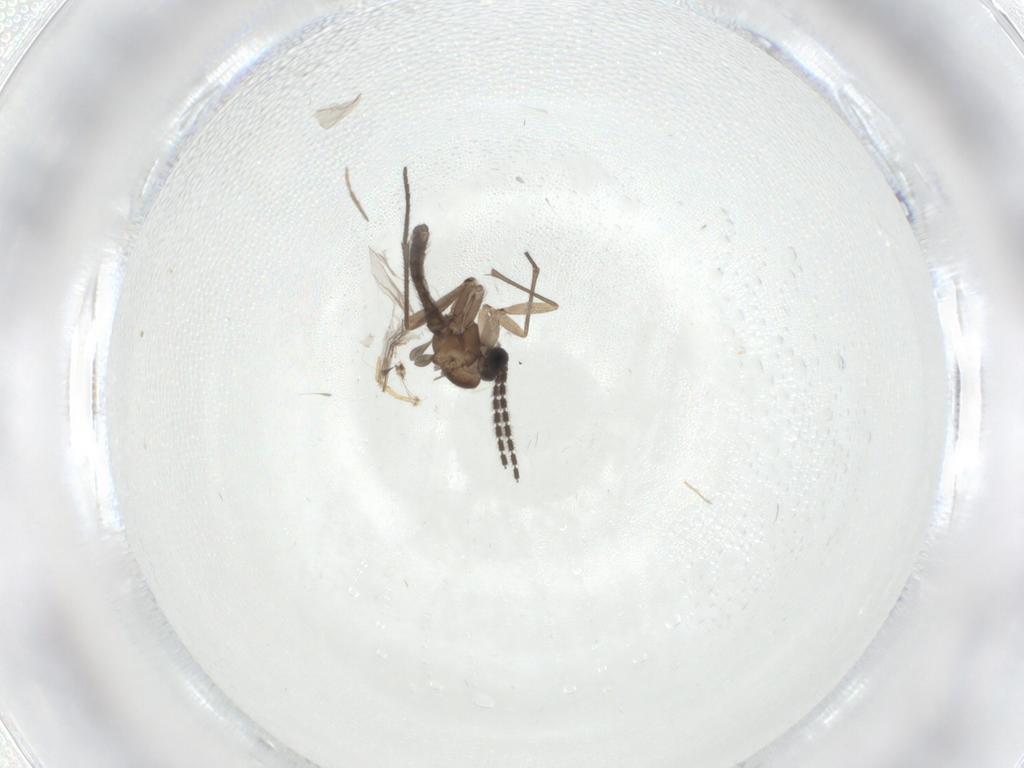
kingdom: Animalia
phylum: Arthropoda
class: Insecta
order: Diptera
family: Sciaridae
